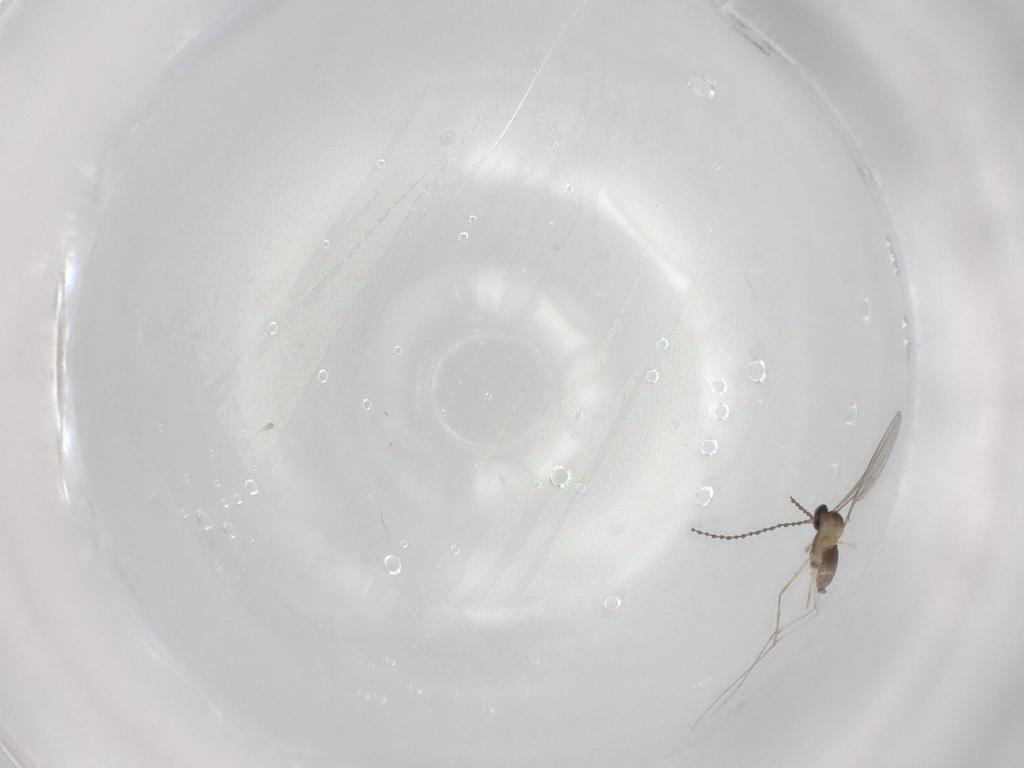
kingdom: Animalia
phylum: Arthropoda
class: Insecta
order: Diptera
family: Cecidomyiidae
